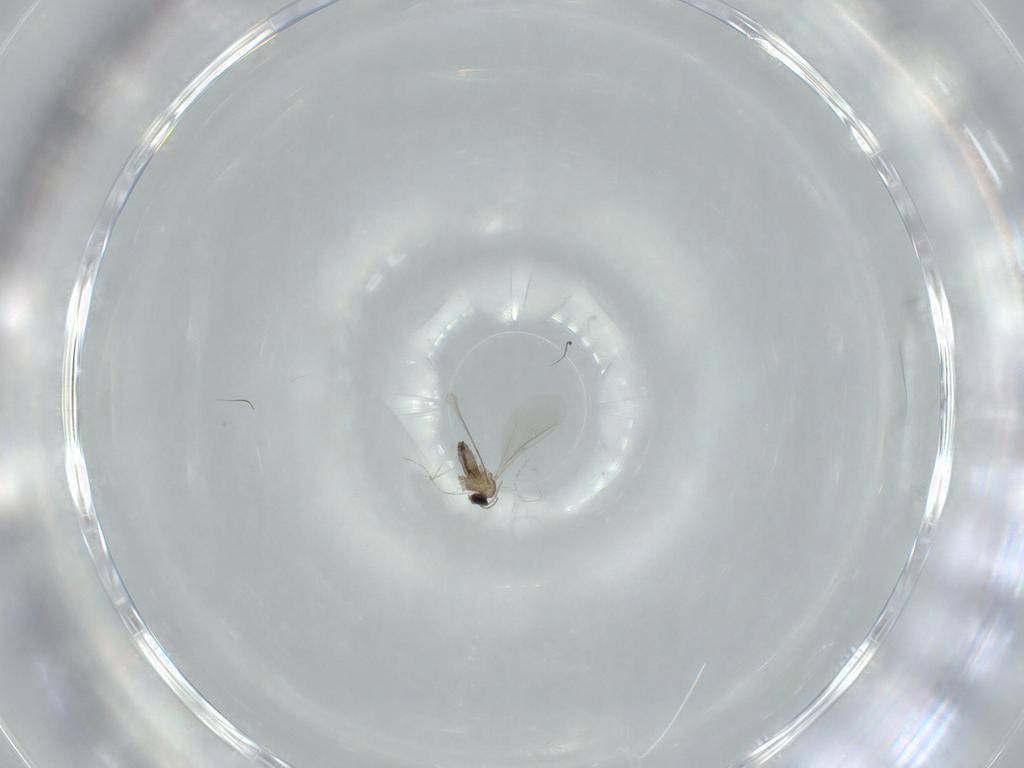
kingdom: Animalia
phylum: Arthropoda
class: Insecta
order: Diptera
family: Cecidomyiidae
